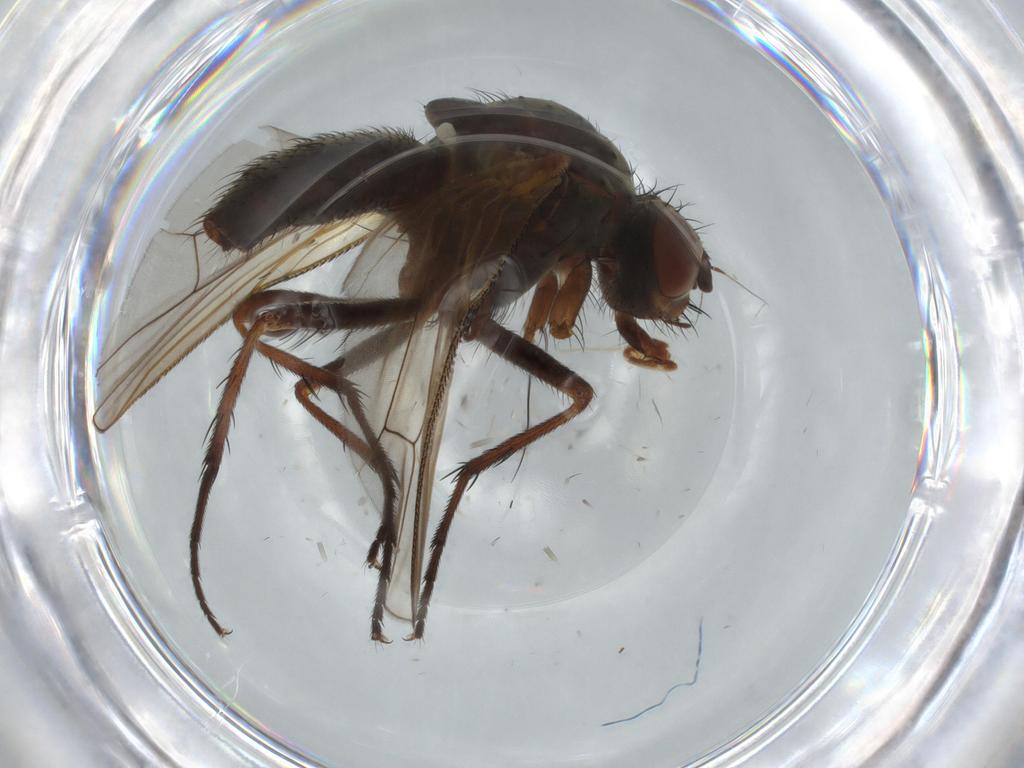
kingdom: Animalia
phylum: Arthropoda
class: Insecta
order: Diptera
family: Anthomyiidae
